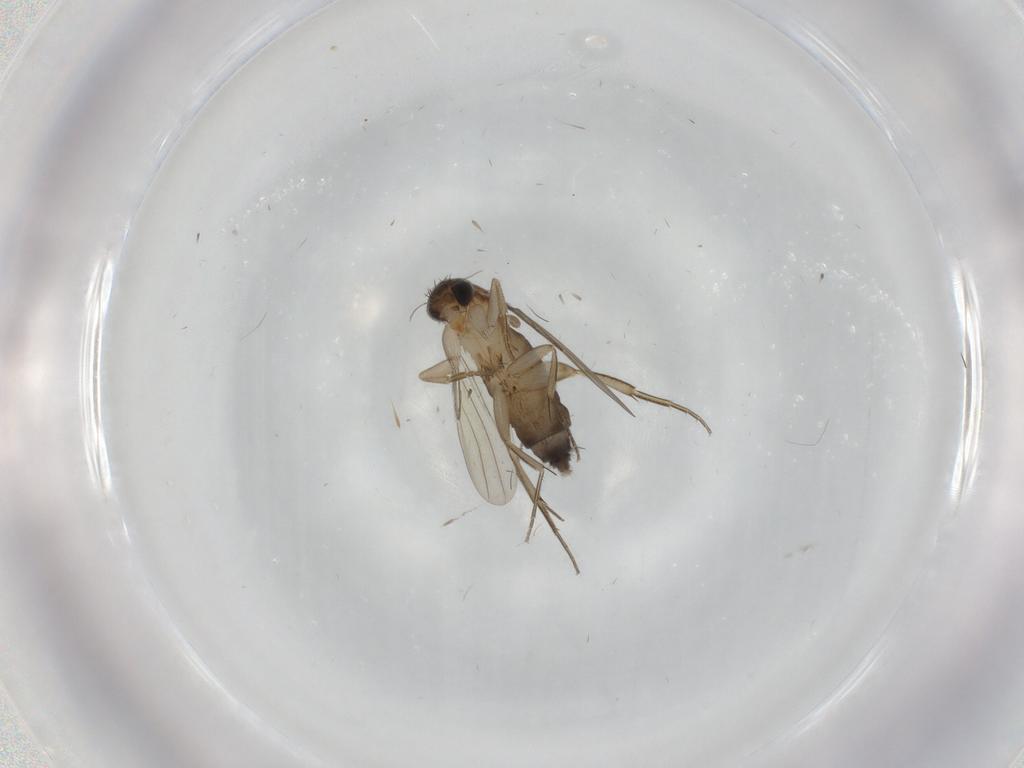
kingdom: Animalia
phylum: Arthropoda
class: Insecta
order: Diptera
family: Phoridae
